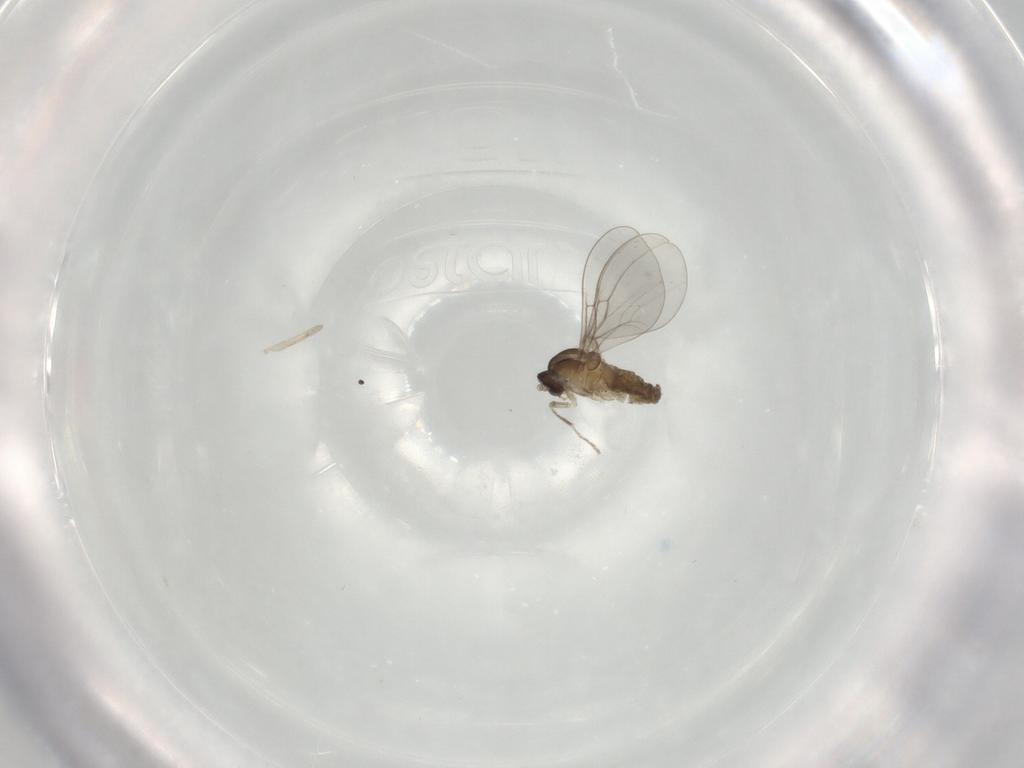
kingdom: Animalia
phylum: Arthropoda
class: Insecta
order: Diptera
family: Cecidomyiidae
